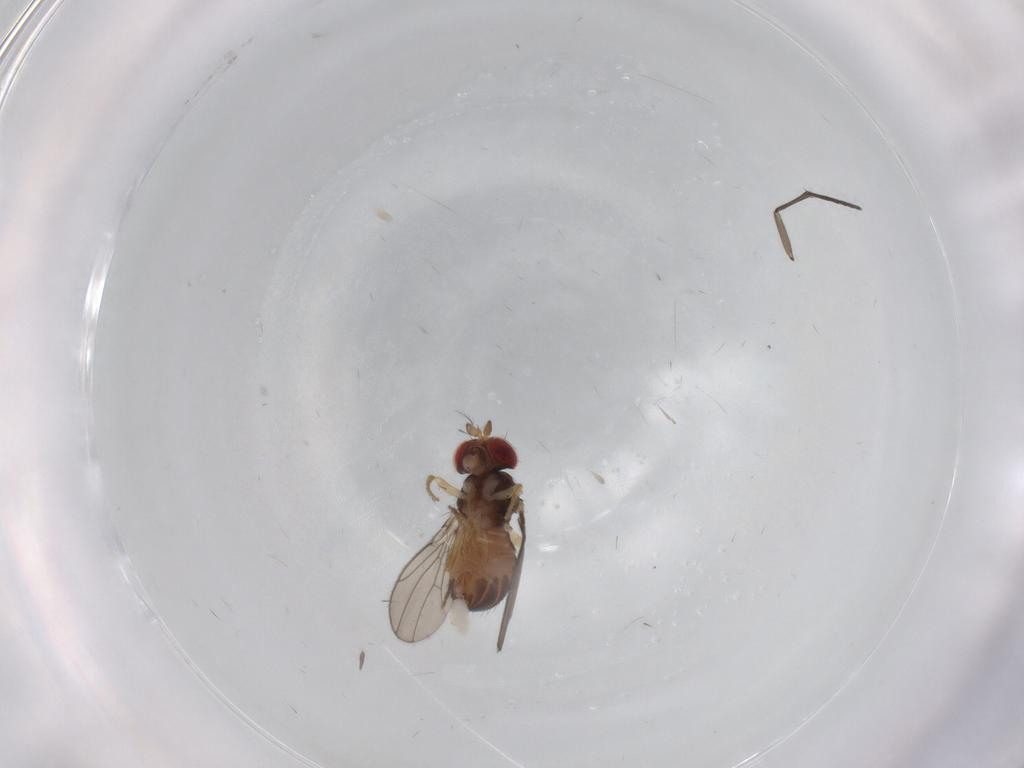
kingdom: Animalia
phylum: Arthropoda
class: Insecta
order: Diptera
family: Drosophilidae
